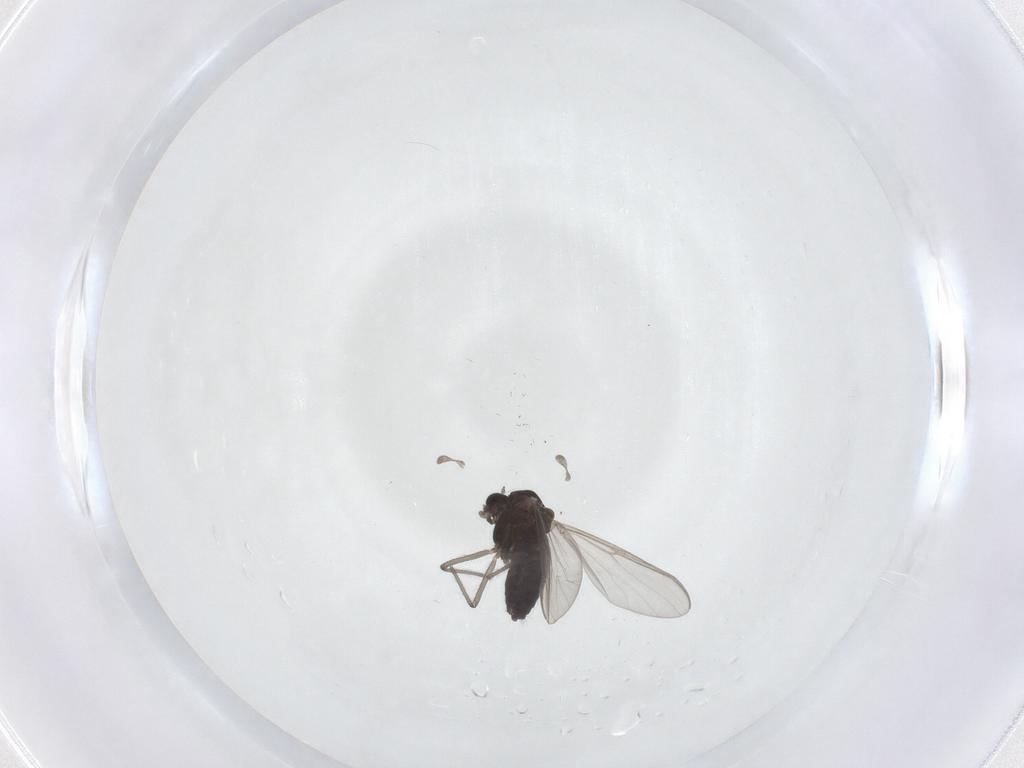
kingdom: Animalia
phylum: Arthropoda
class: Insecta
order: Diptera
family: Chironomidae
